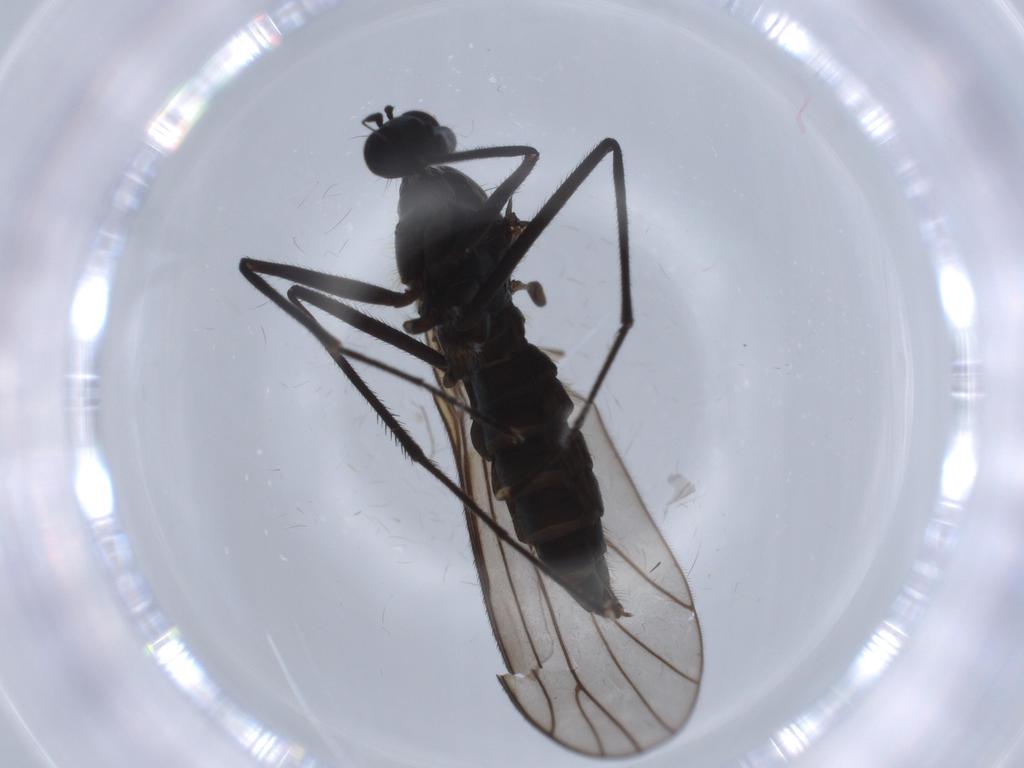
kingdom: Animalia
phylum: Arthropoda
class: Insecta
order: Diptera
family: Empididae
